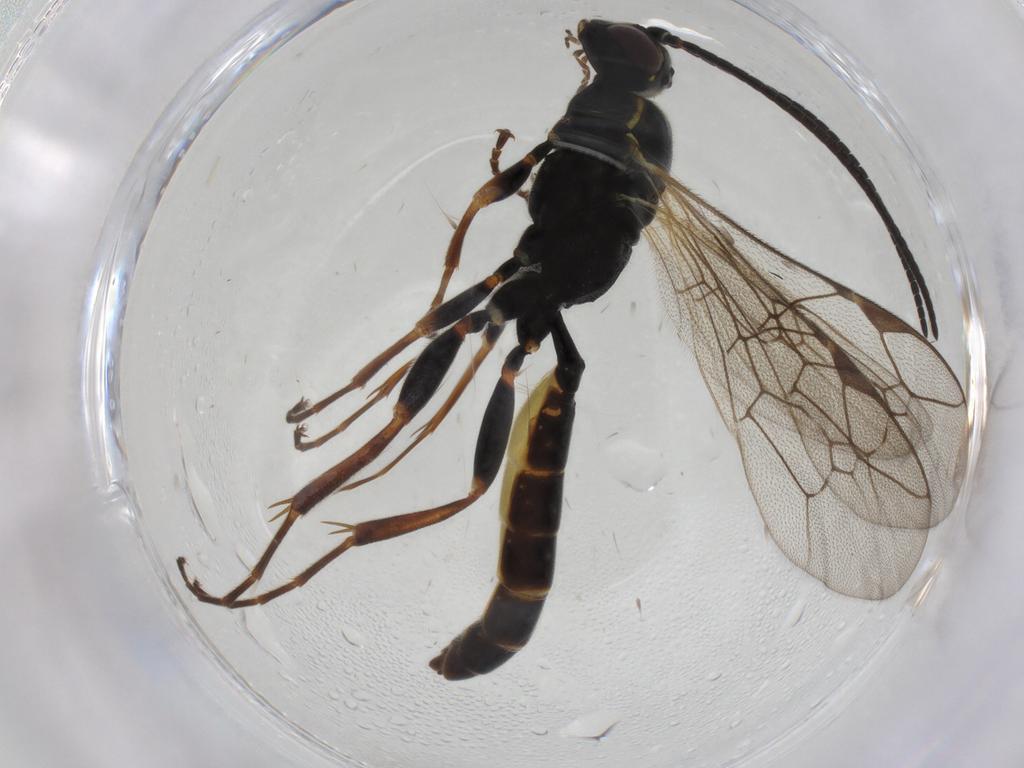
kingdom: Animalia
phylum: Arthropoda
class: Insecta
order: Hymenoptera
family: Ichneumonidae
